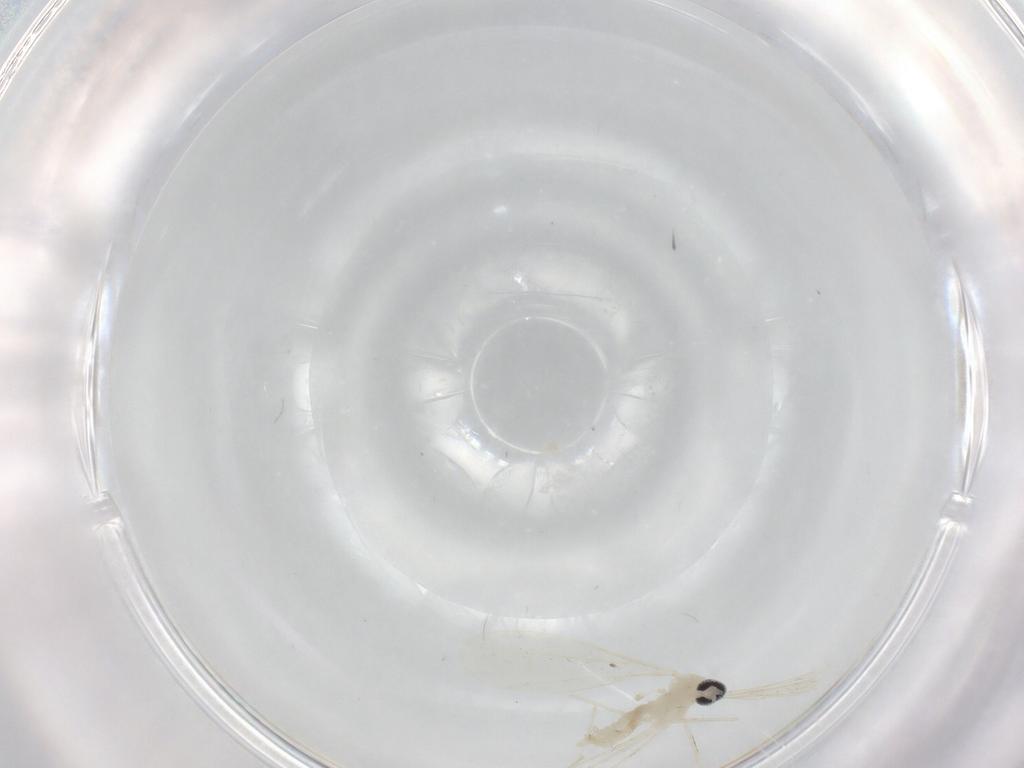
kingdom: Animalia
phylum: Arthropoda
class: Insecta
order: Diptera
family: Cecidomyiidae
